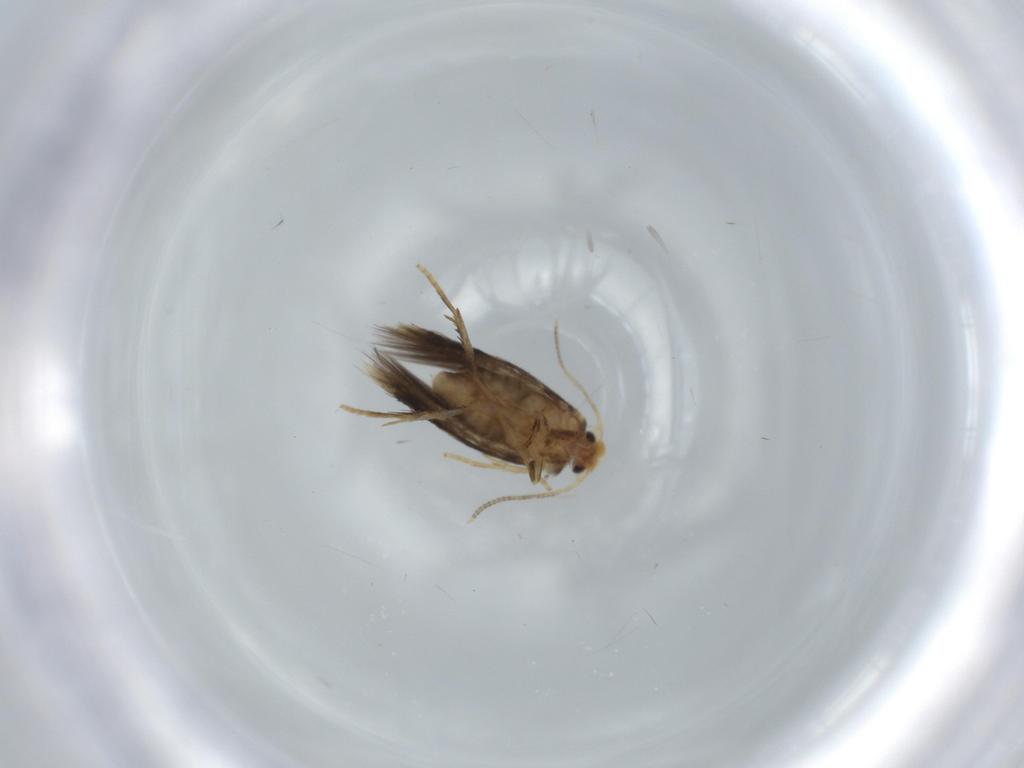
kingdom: Animalia
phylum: Arthropoda
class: Insecta
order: Lepidoptera
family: Nepticulidae
